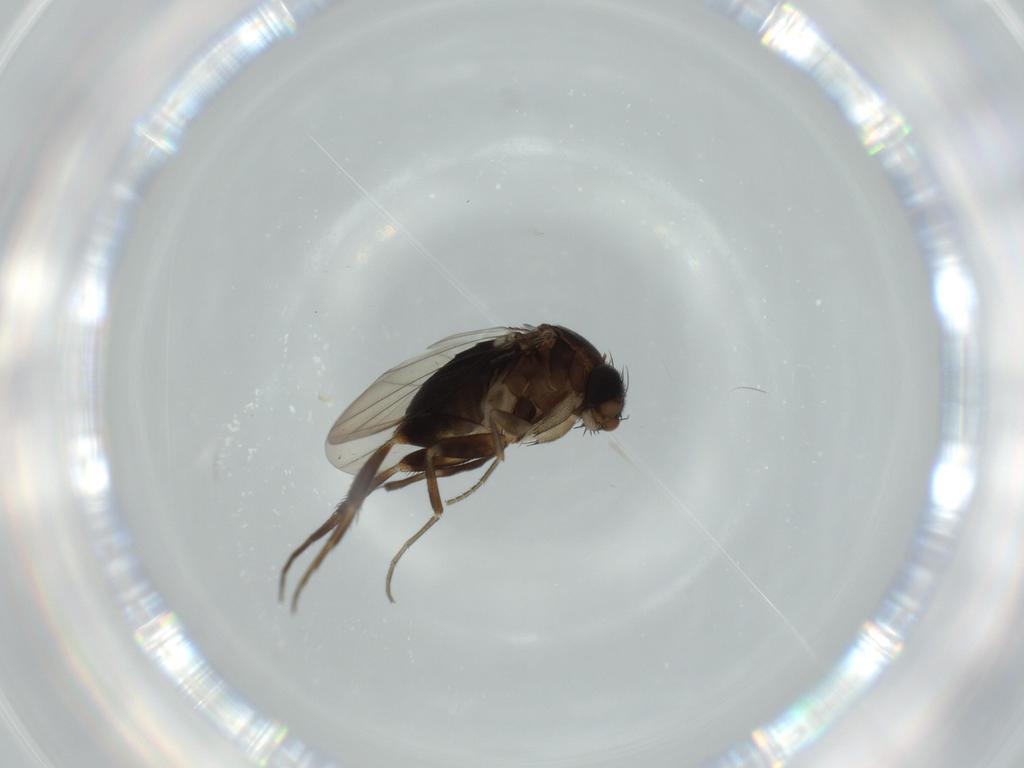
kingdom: Animalia
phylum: Arthropoda
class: Insecta
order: Diptera
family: Phoridae
